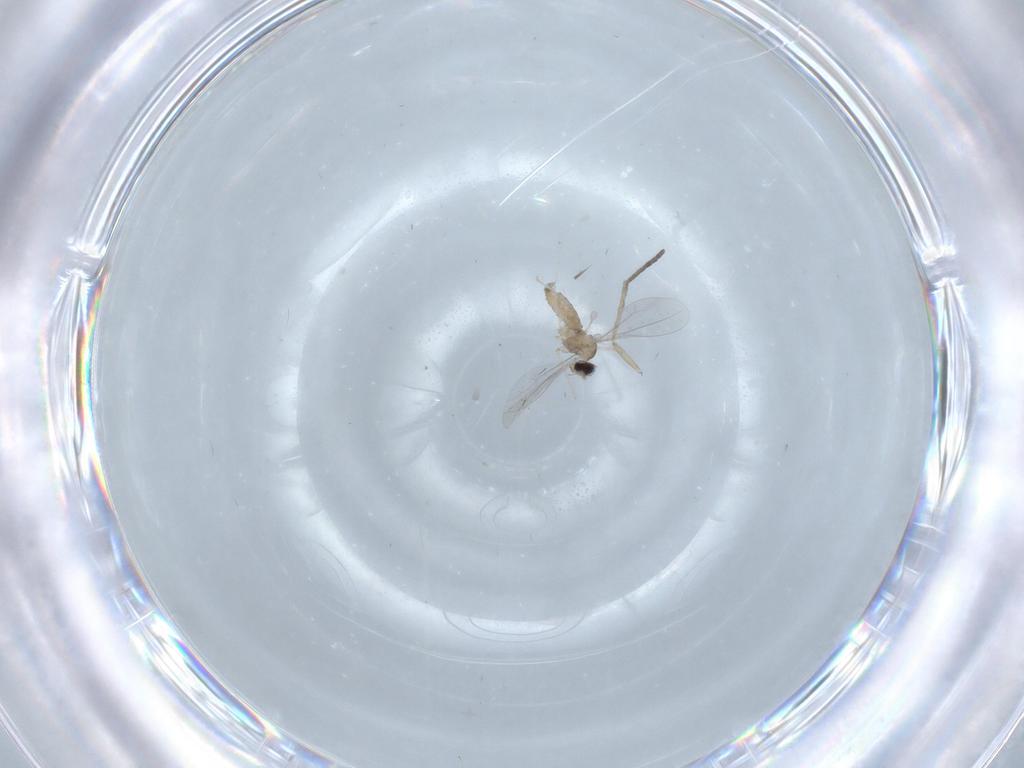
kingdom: Animalia
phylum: Arthropoda
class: Insecta
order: Diptera
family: Cecidomyiidae
